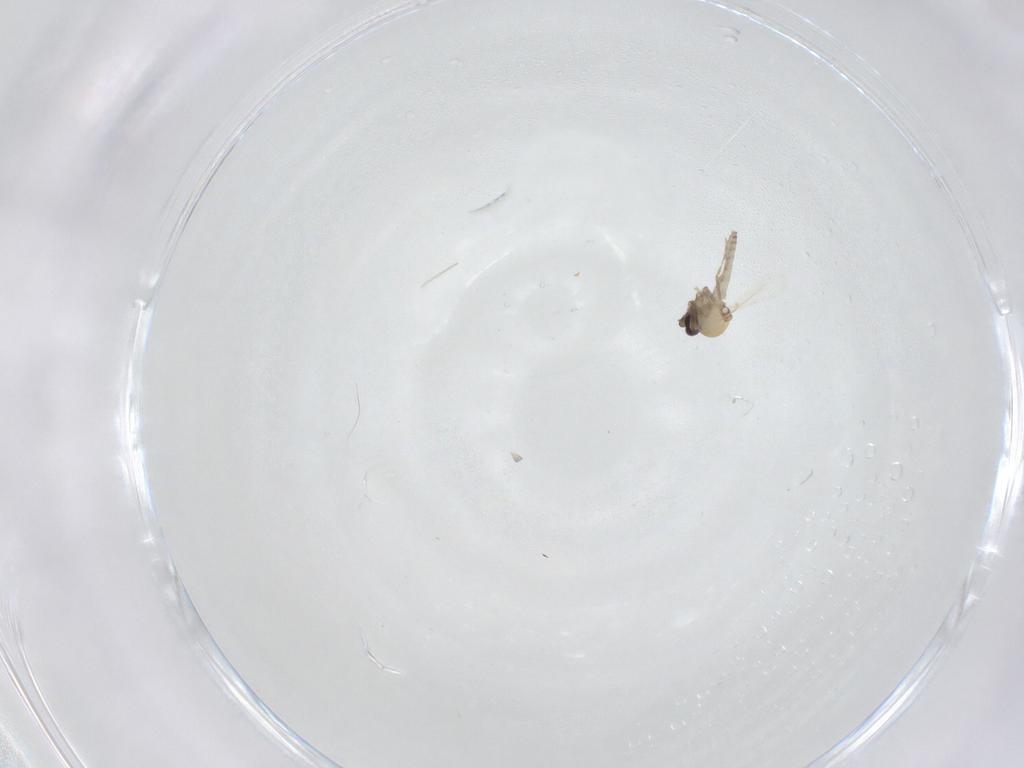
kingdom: Animalia
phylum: Arthropoda
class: Insecta
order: Diptera
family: Ceratopogonidae
